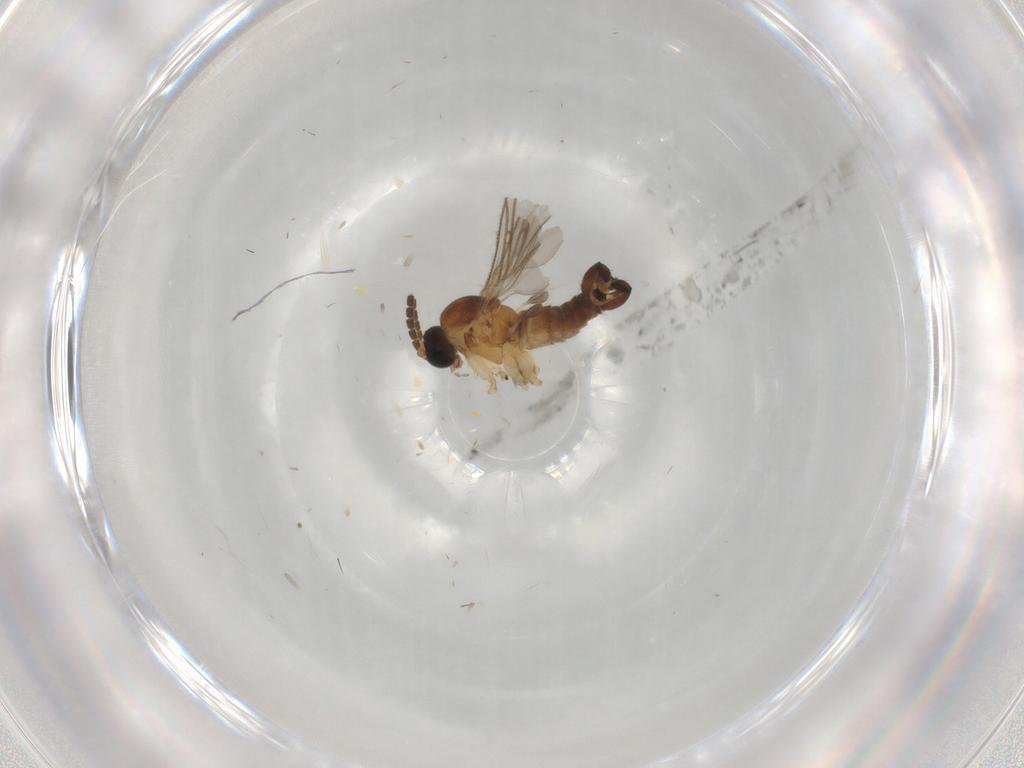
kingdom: Animalia
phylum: Arthropoda
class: Insecta
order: Diptera
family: Sciaridae
